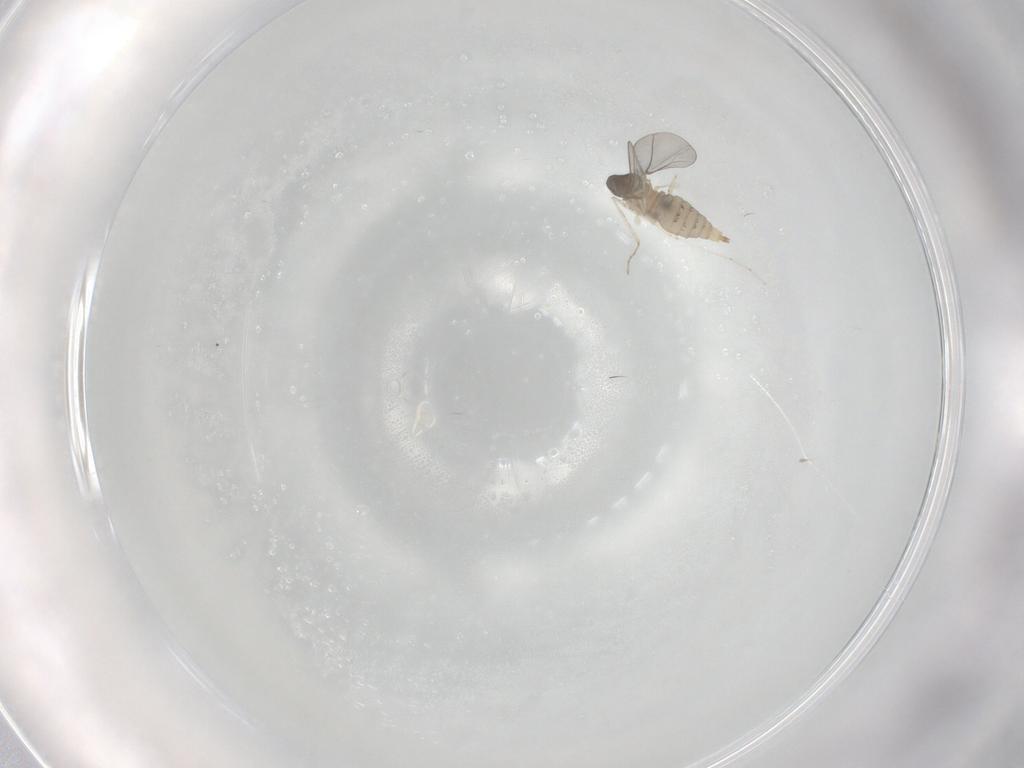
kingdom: Animalia
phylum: Arthropoda
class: Insecta
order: Diptera
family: Cecidomyiidae
